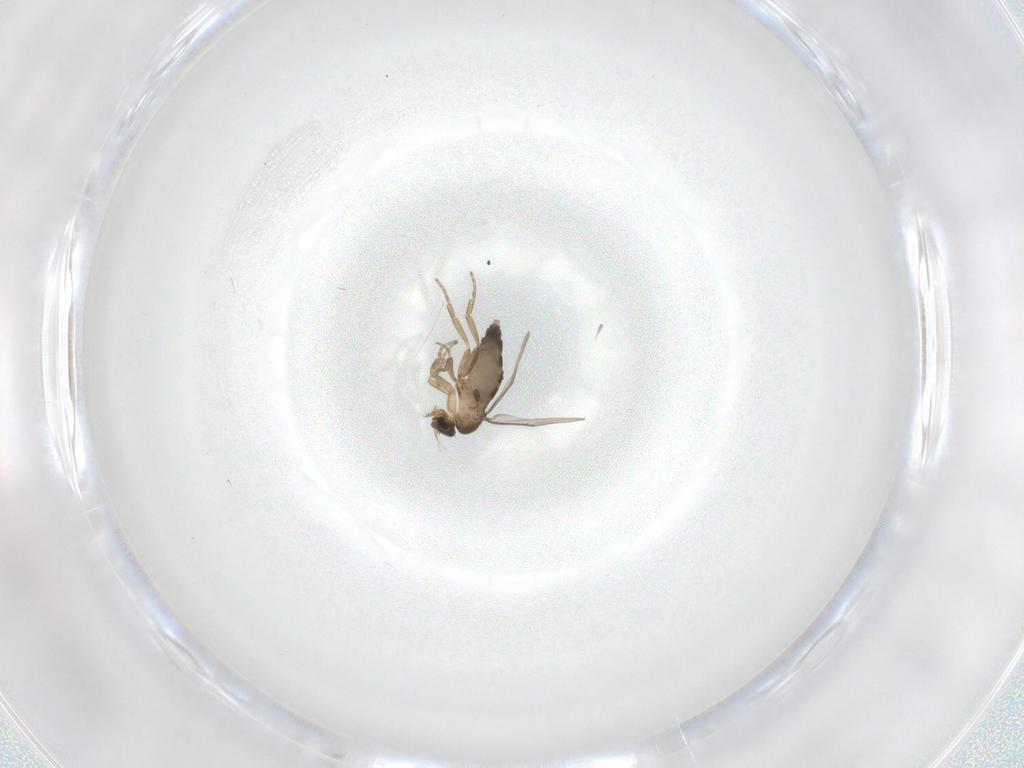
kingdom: Animalia
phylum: Arthropoda
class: Insecta
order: Diptera
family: Phoridae
